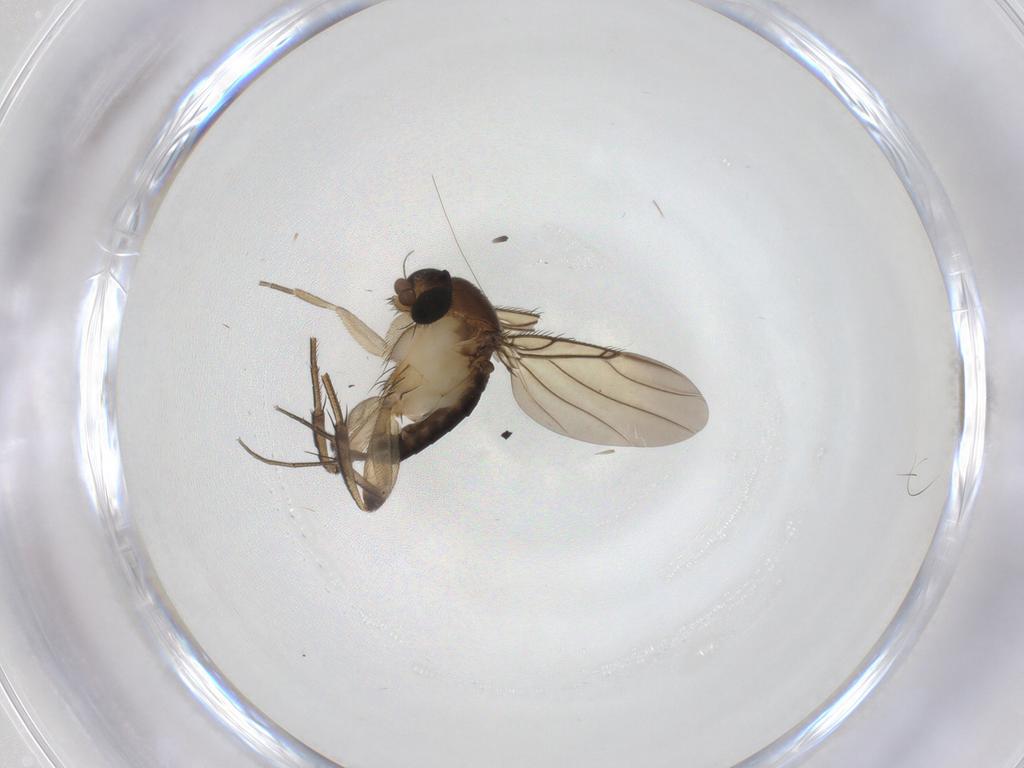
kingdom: Animalia
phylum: Arthropoda
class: Insecta
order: Diptera
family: Phoridae
